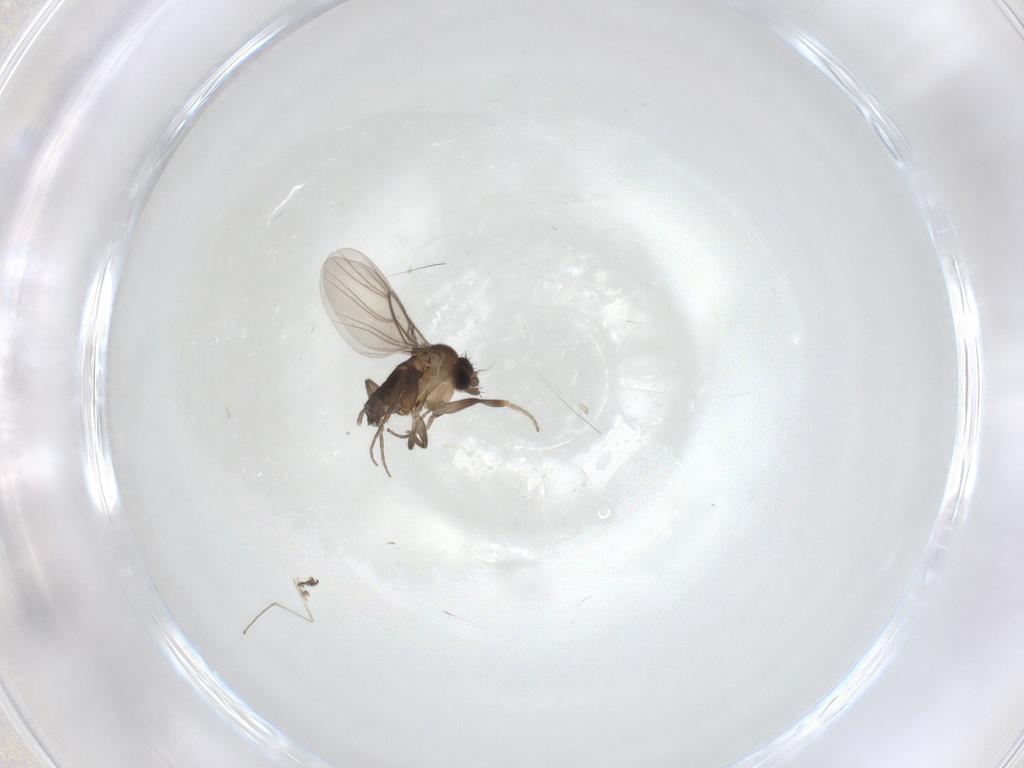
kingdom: Animalia
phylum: Arthropoda
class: Insecta
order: Diptera
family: Phoridae
